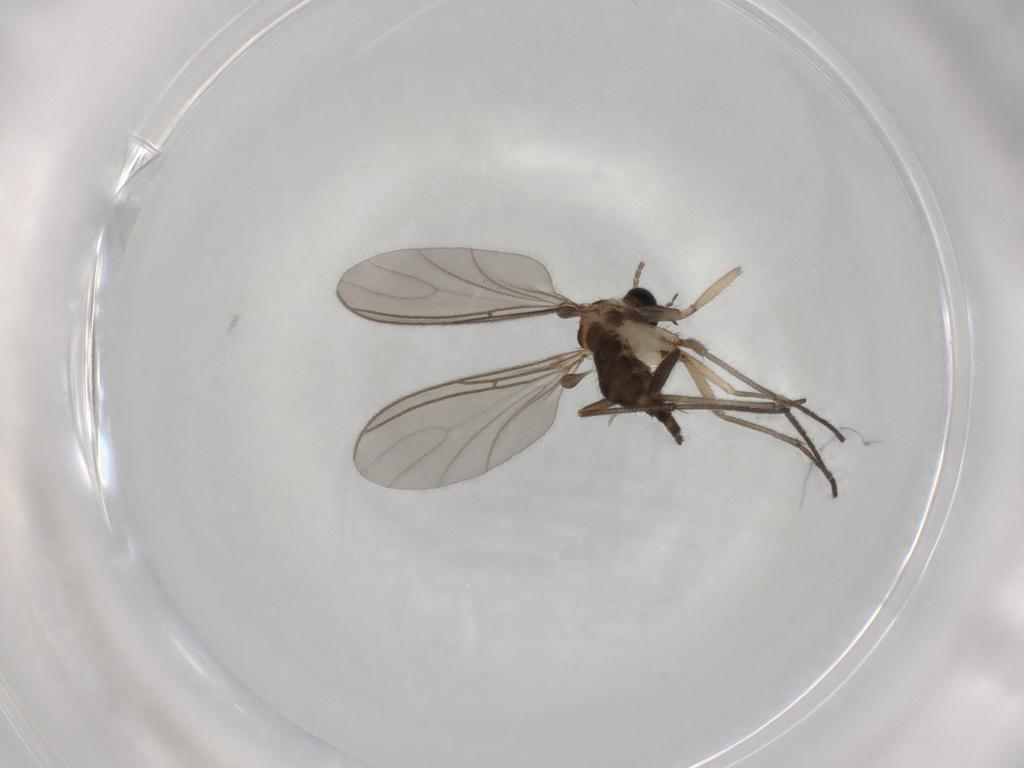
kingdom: Animalia
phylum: Arthropoda
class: Insecta
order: Diptera
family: Sciaridae
